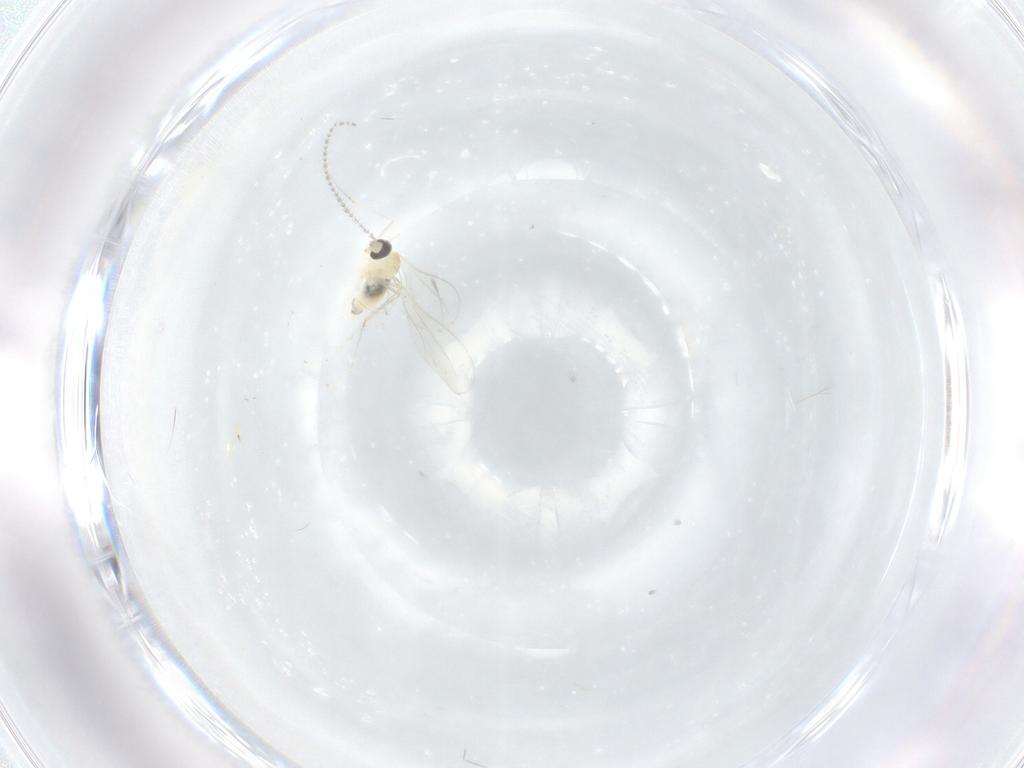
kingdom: Animalia
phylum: Arthropoda
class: Insecta
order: Diptera
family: Cecidomyiidae
